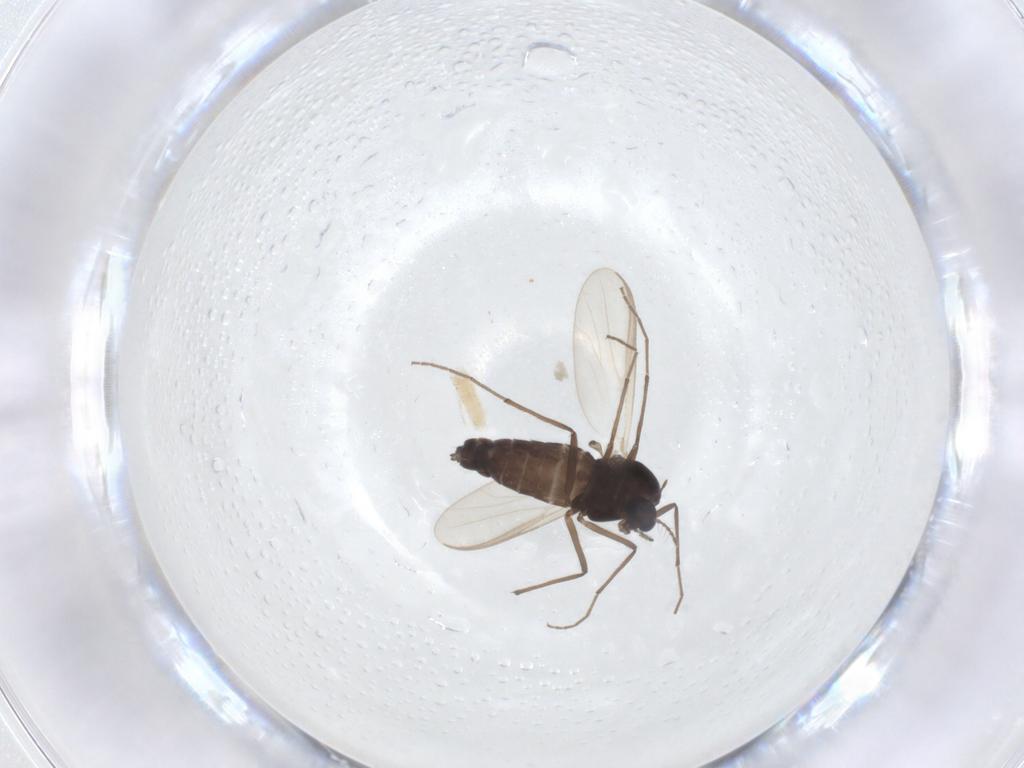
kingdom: Animalia
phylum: Arthropoda
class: Insecta
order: Diptera
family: Chironomidae
